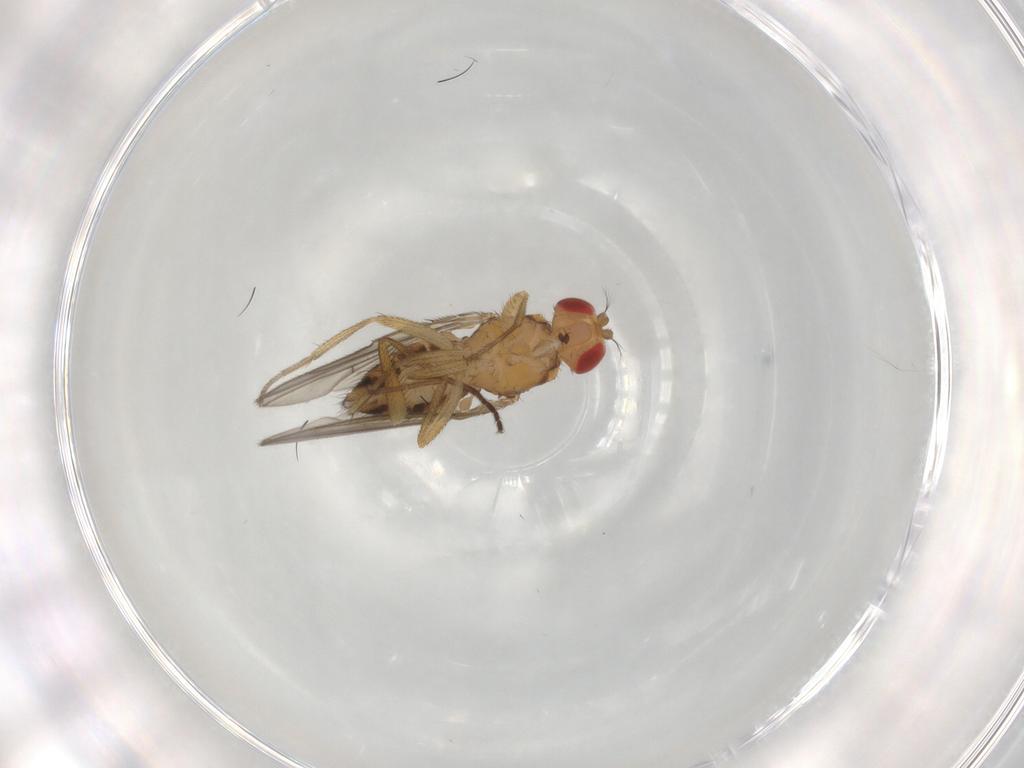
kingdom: Animalia
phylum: Arthropoda
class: Insecta
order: Diptera
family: Drosophilidae
